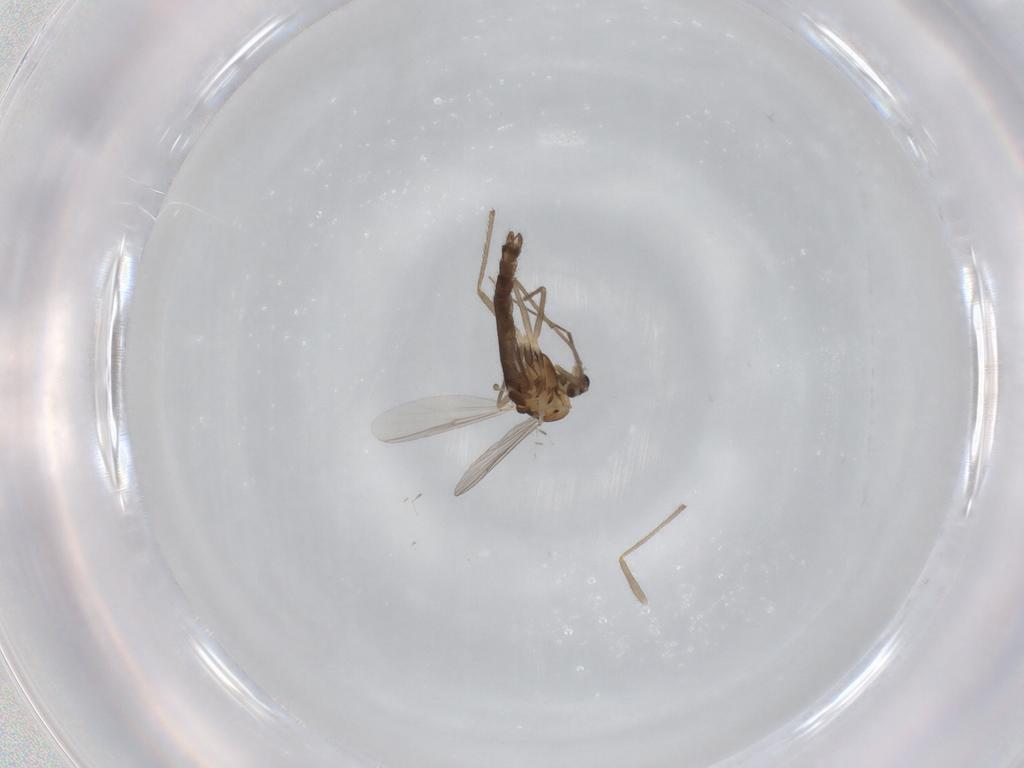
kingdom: Animalia
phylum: Arthropoda
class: Insecta
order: Diptera
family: Chironomidae
